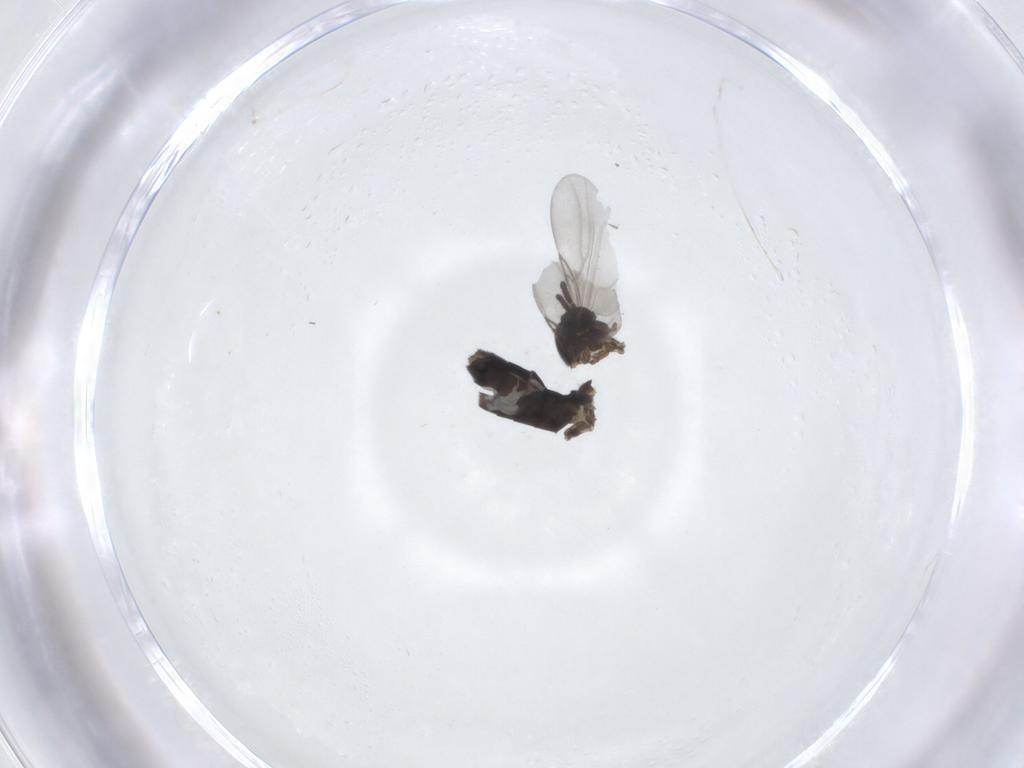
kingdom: Animalia
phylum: Arthropoda
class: Insecta
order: Diptera
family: Scatopsidae
